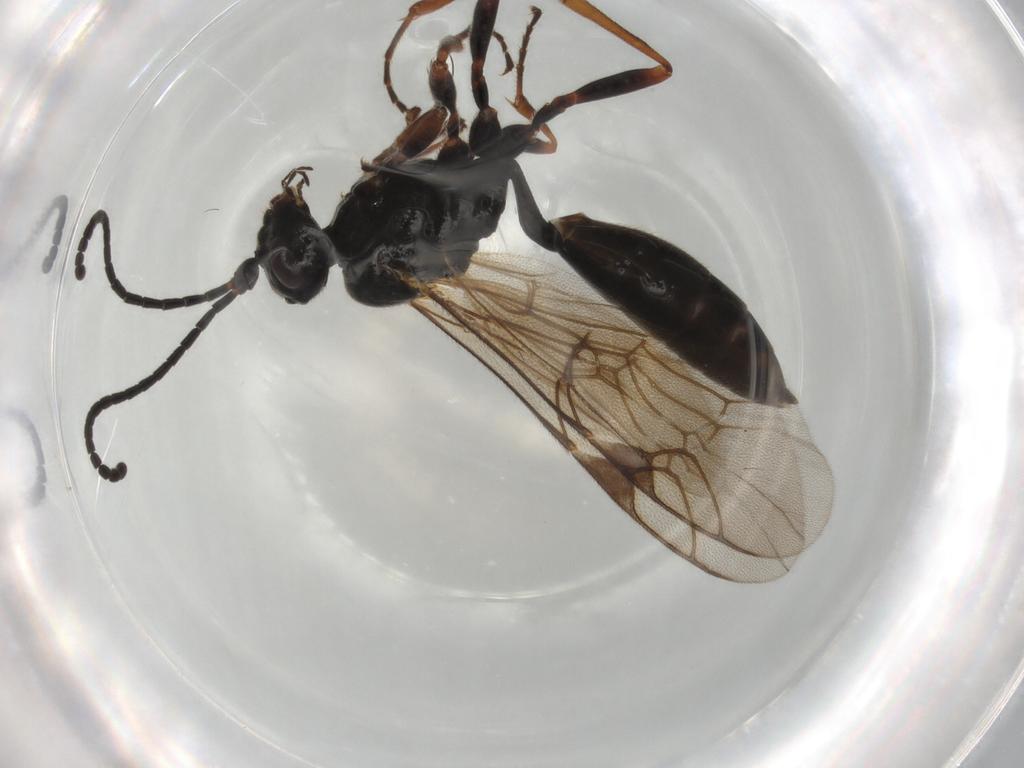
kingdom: Animalia
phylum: Arthropoda
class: Insecta
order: Hymenoptera
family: Ichneumonidae
